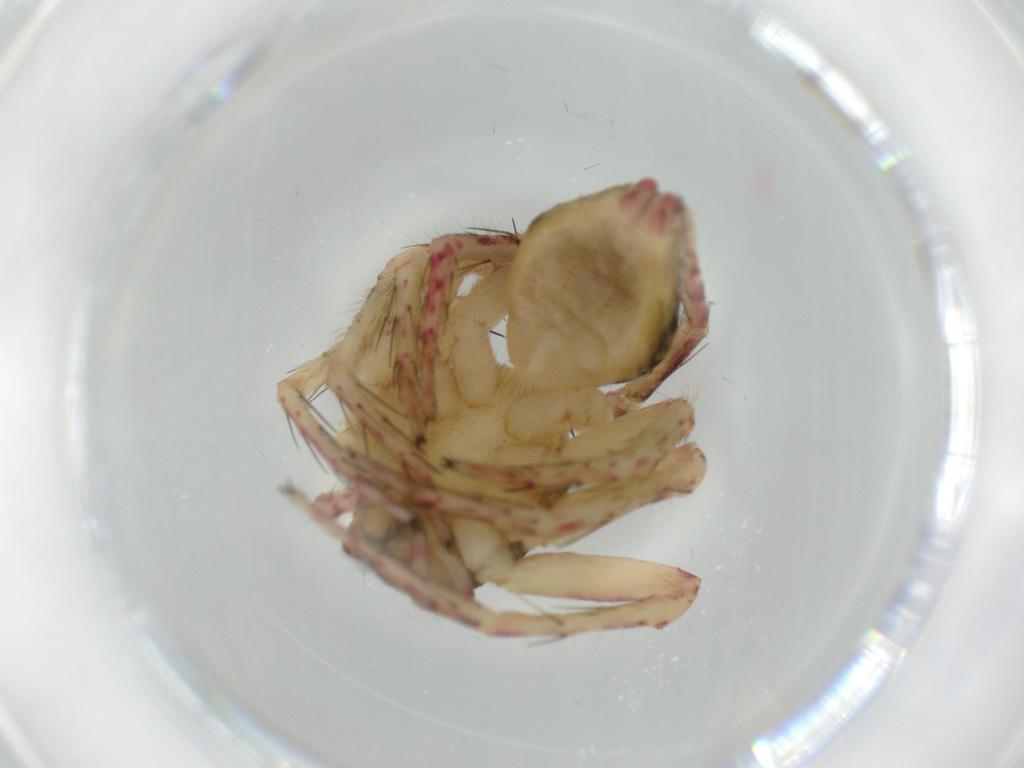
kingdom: Animalia
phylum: Arthropoda
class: Arachnida
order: Araneae
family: Oxyopidae
